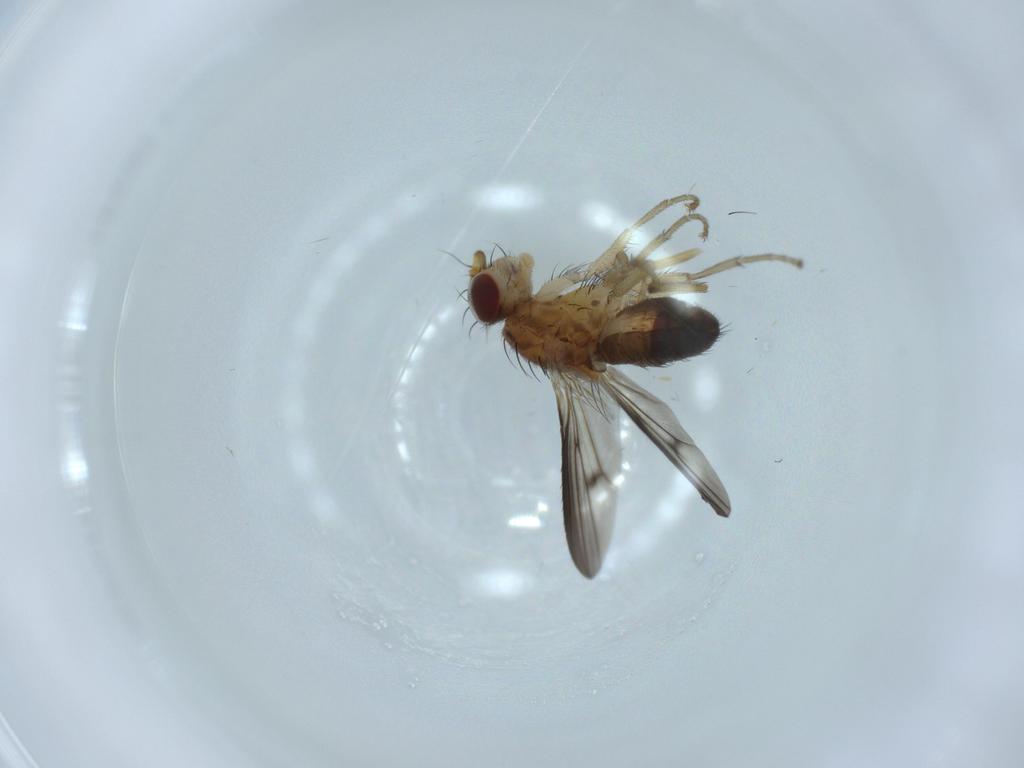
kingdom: Animalia
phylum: Arthropoda
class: Insecta
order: Diptera
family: Heleomyzidae
